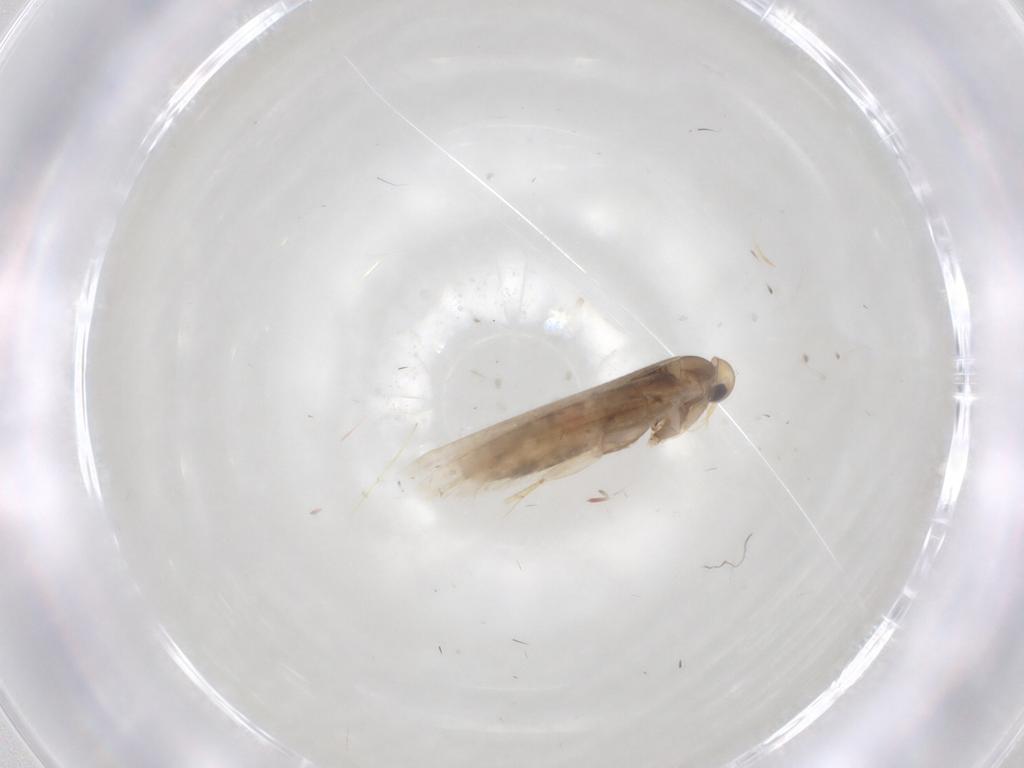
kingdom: Animalia
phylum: Arthropoda
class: Insecta
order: Lepidoptera
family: Gracillariidae
